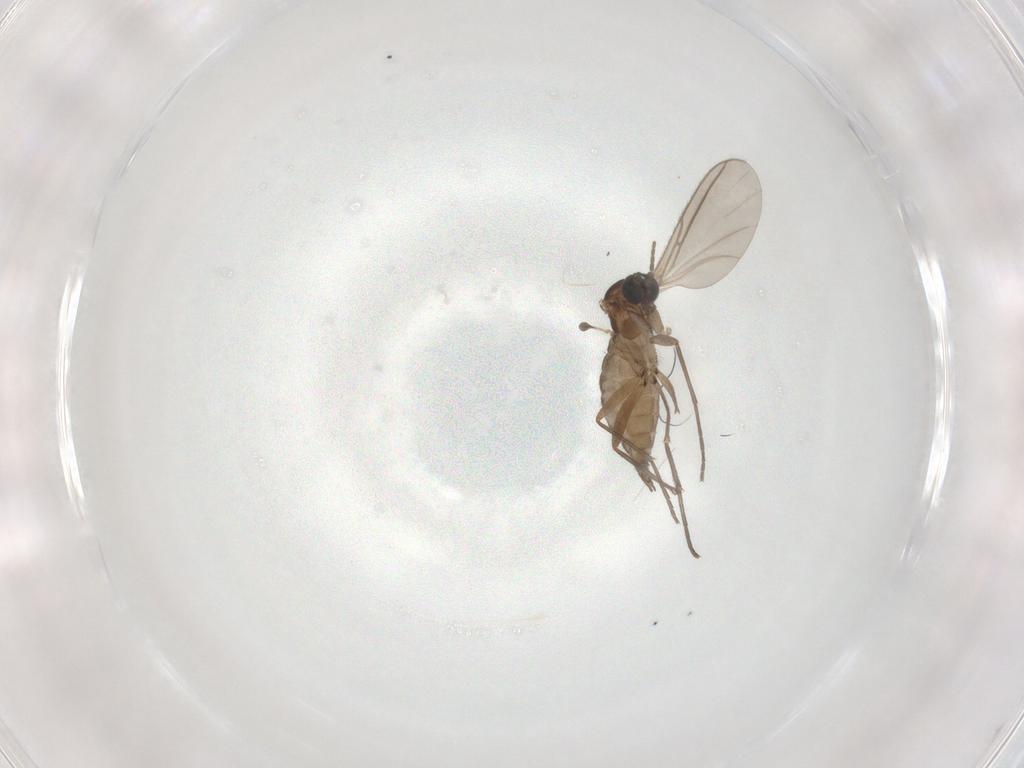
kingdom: Animalia
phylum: Arthropoda
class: Insecta
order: Diptera
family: Sciaridae
